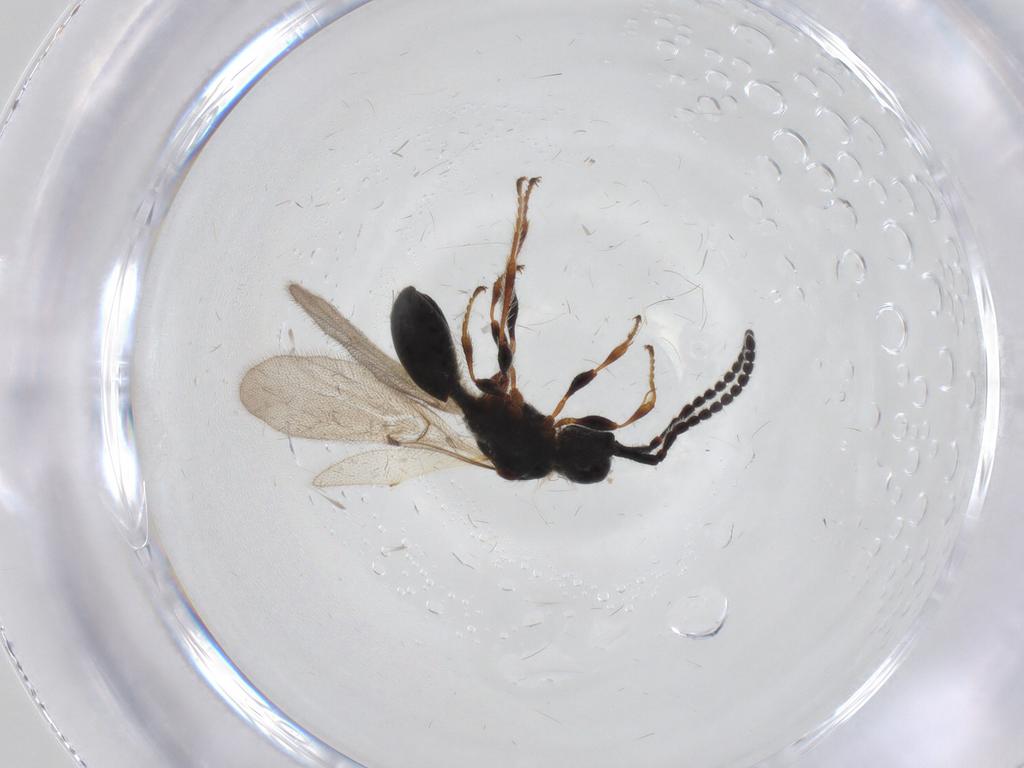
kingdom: Animalia
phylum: Arthropoda
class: Insecta
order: Hymenoptera
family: Diapriidae
